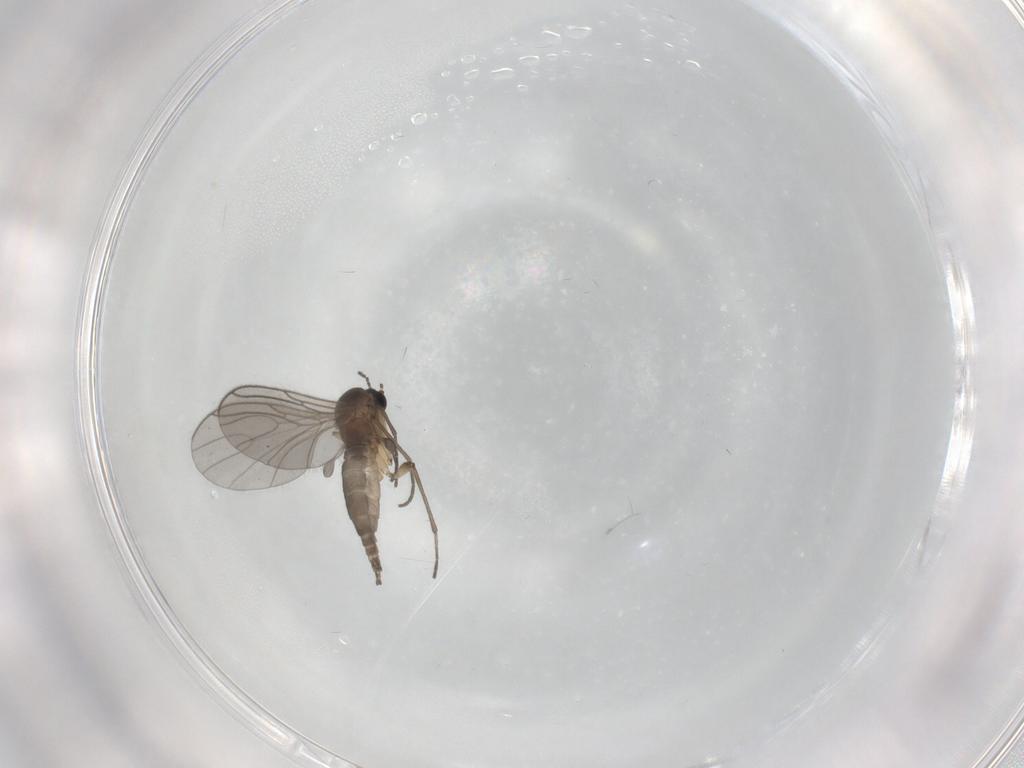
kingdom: Animalia
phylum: Arthropoda
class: Insecta
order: Diptera
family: Sciaridae
